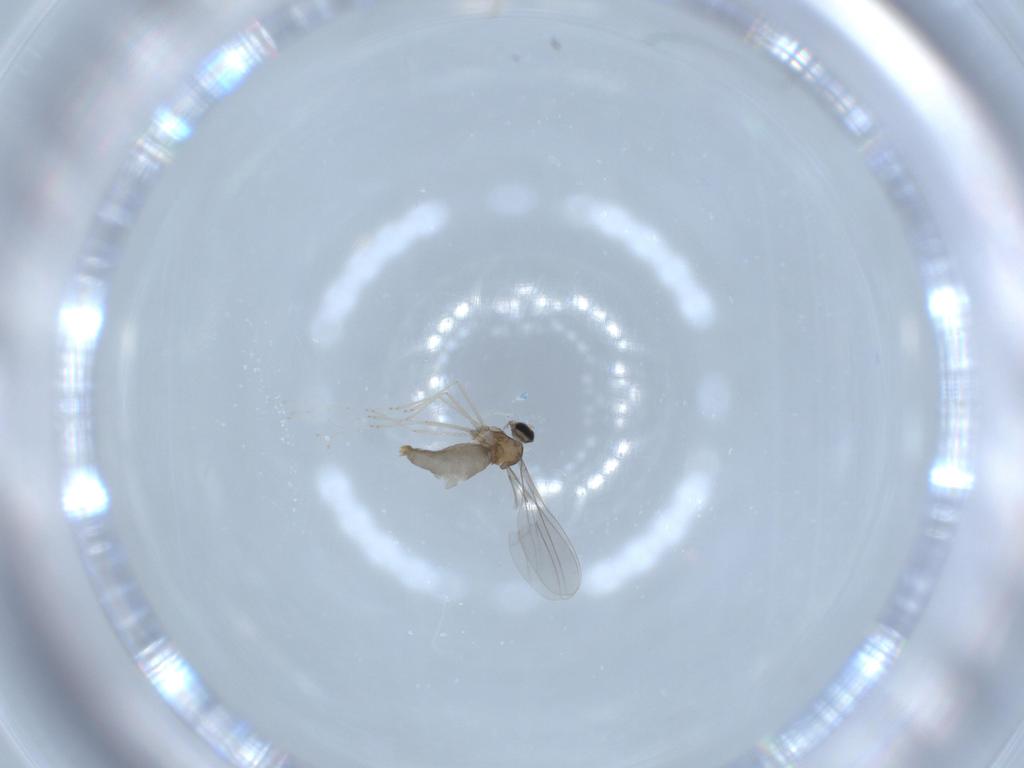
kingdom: Animalia
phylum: Arthropoda
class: Insecta
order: Diptera
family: Cecidomyiidae
